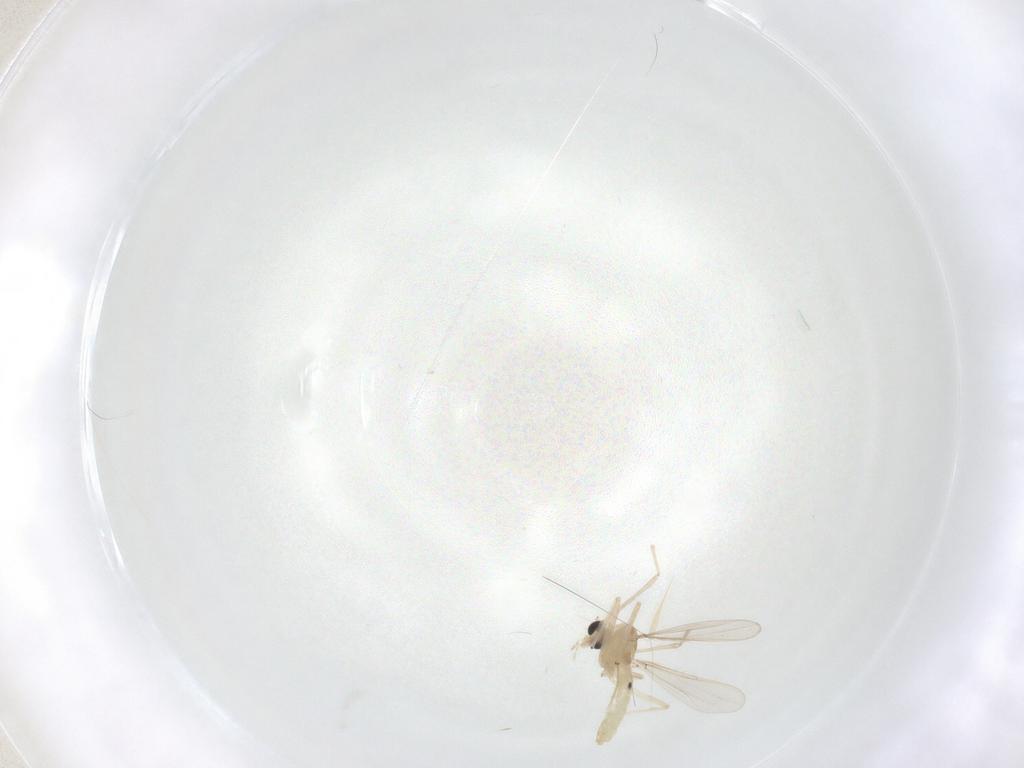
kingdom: Animalia
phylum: Arthropoda
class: Insecta
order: Diptera
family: Chironomidae
